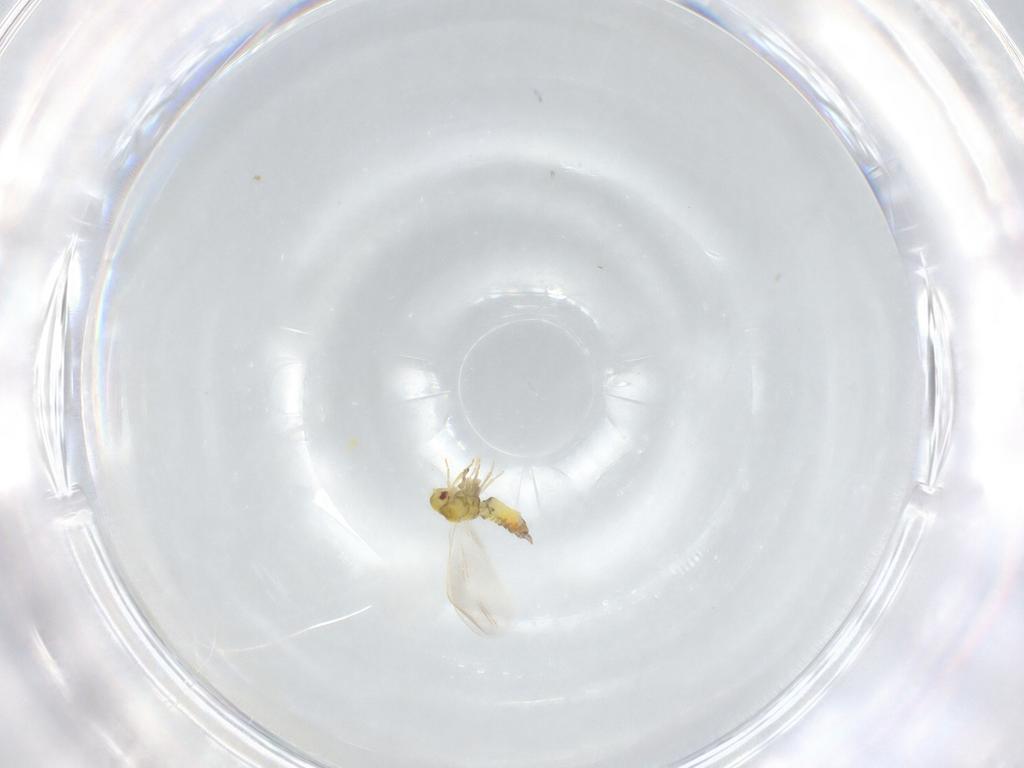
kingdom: Animalia
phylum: Arthropoda
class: Insecta
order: Hemiptera
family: Aleyrodidae
